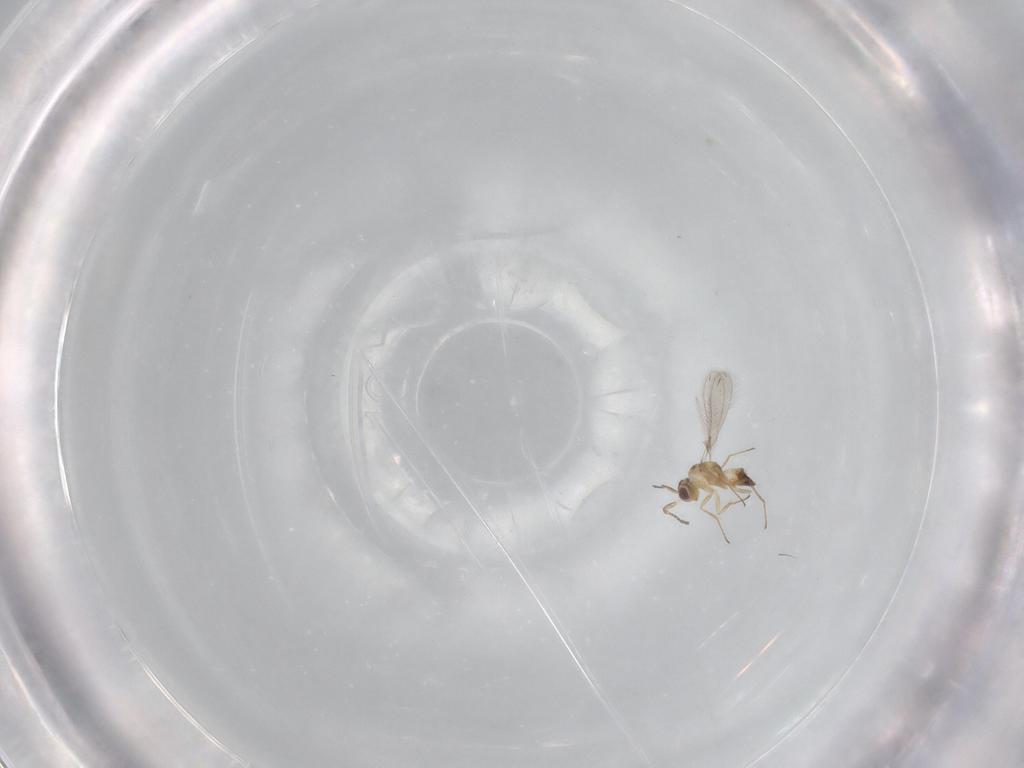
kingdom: Animalia
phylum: Arthropoda
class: Insecta
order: Hymenoptera
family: Mymaridae
